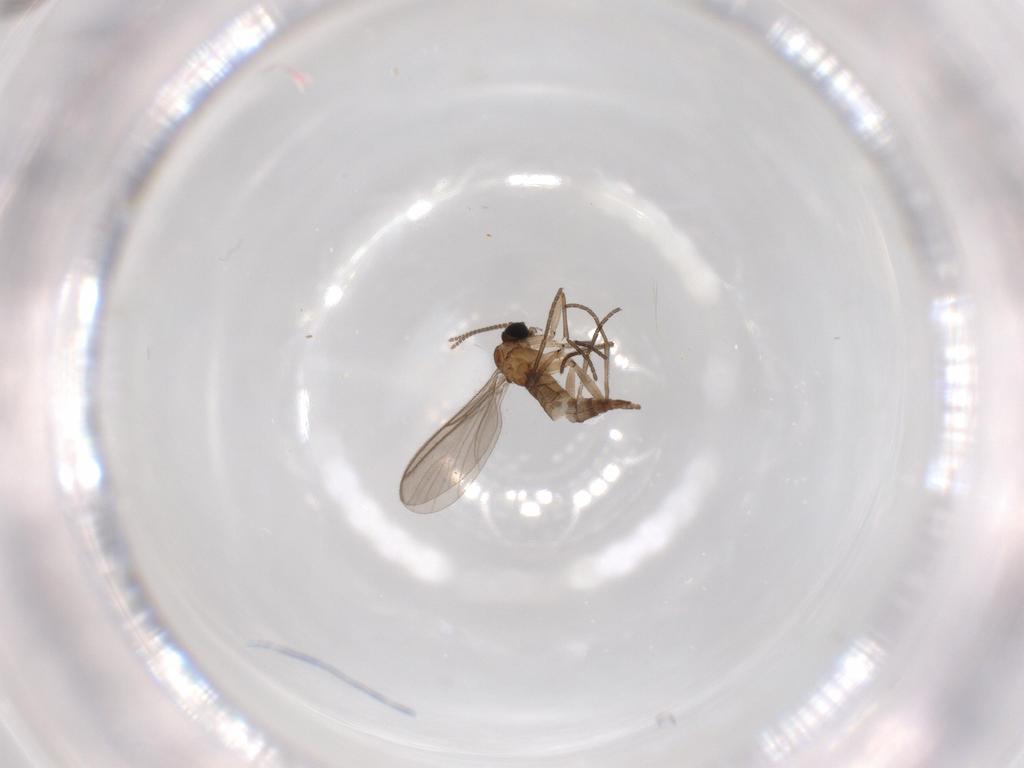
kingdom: Animalia
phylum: Arthropoda
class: Insecta
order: Diptera
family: Sciaridae
